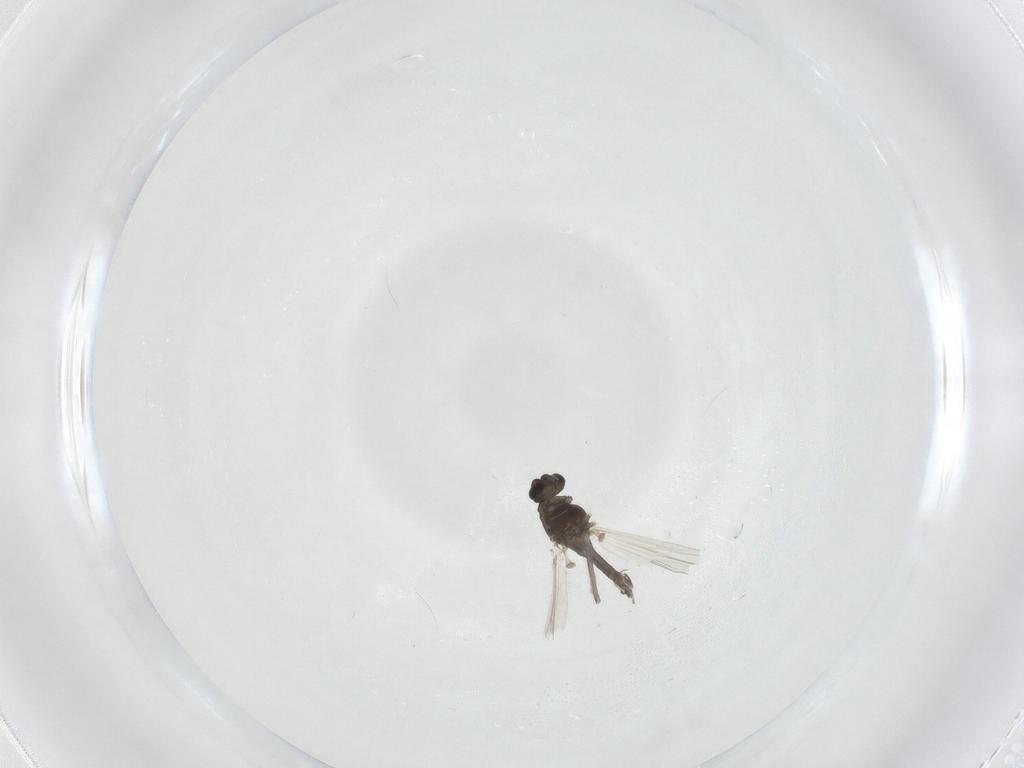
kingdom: Animalia
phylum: Arthropoda
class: Insecta
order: Diptera
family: Chironomidae
